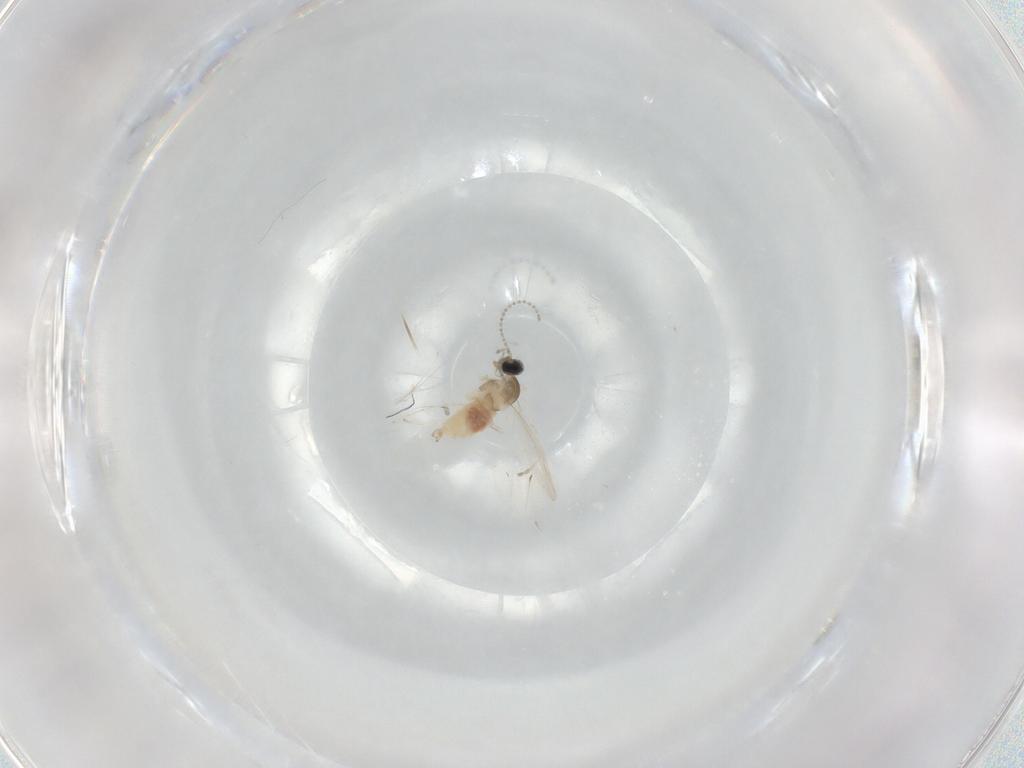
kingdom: Animalia
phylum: Arthropoda
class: Insecta
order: Diptera
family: Cecidomyiidae
